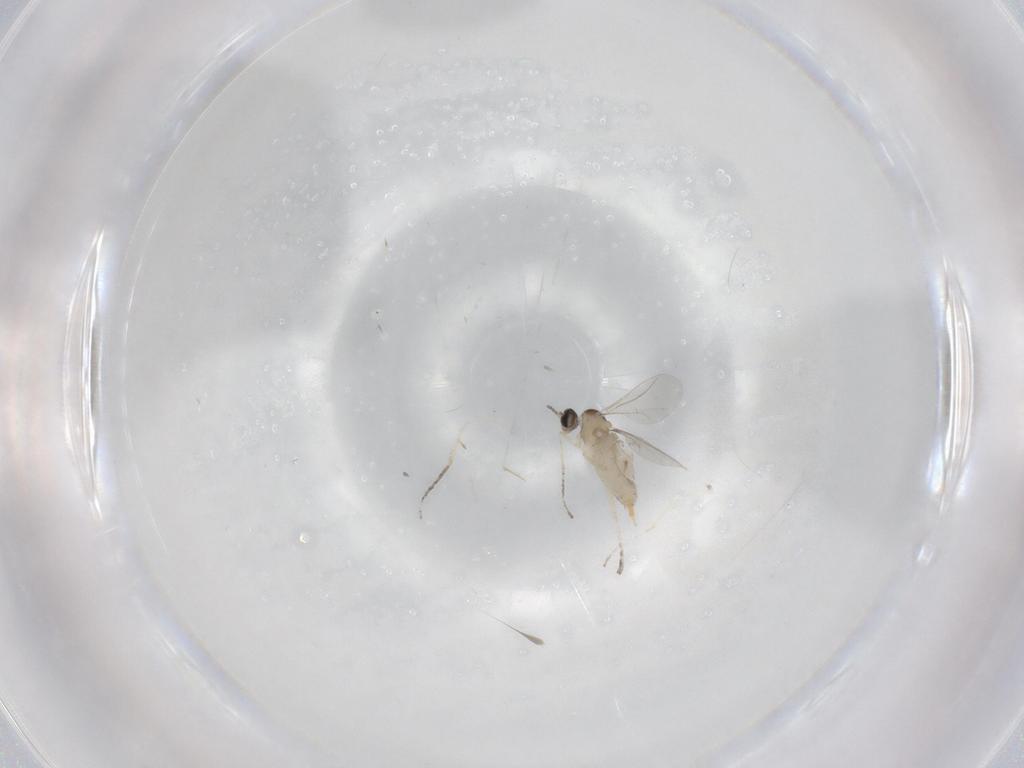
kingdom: Animalia
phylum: Arthropoda
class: Insecta
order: Diptera
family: Cecidomyiidae
